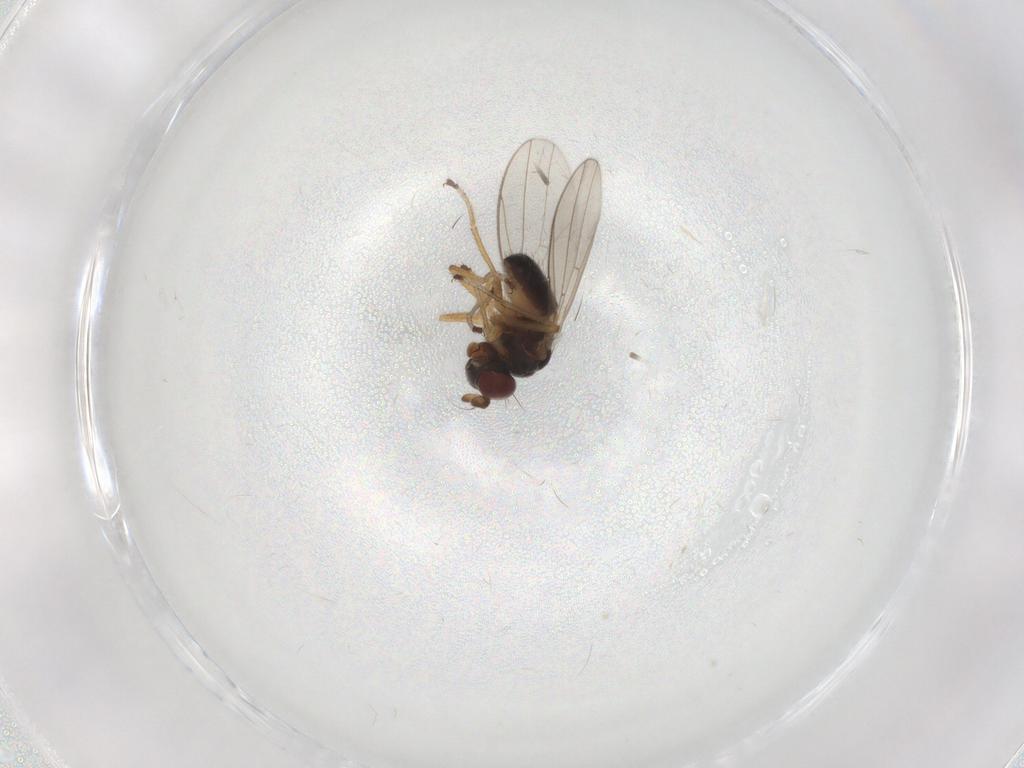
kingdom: Animalia
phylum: Arthropoda
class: Insecta
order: Diptera
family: Ephydridae
